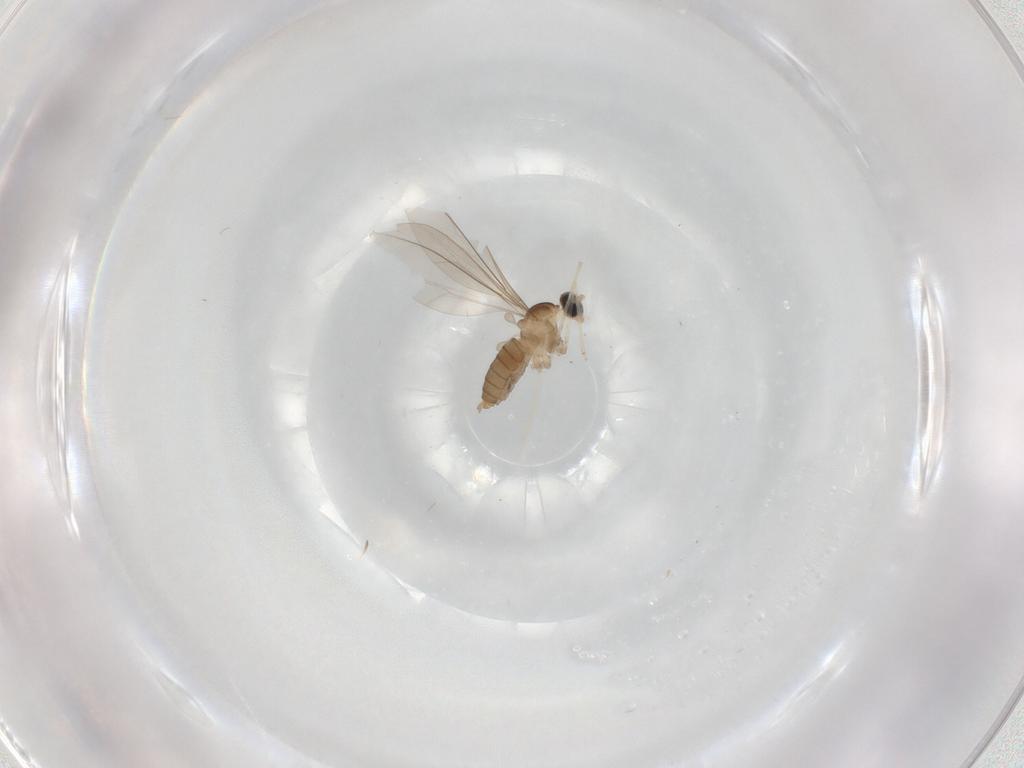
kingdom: Animalia
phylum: Arthropoda
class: Insecta
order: Diptera
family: Cecidomyiidae
